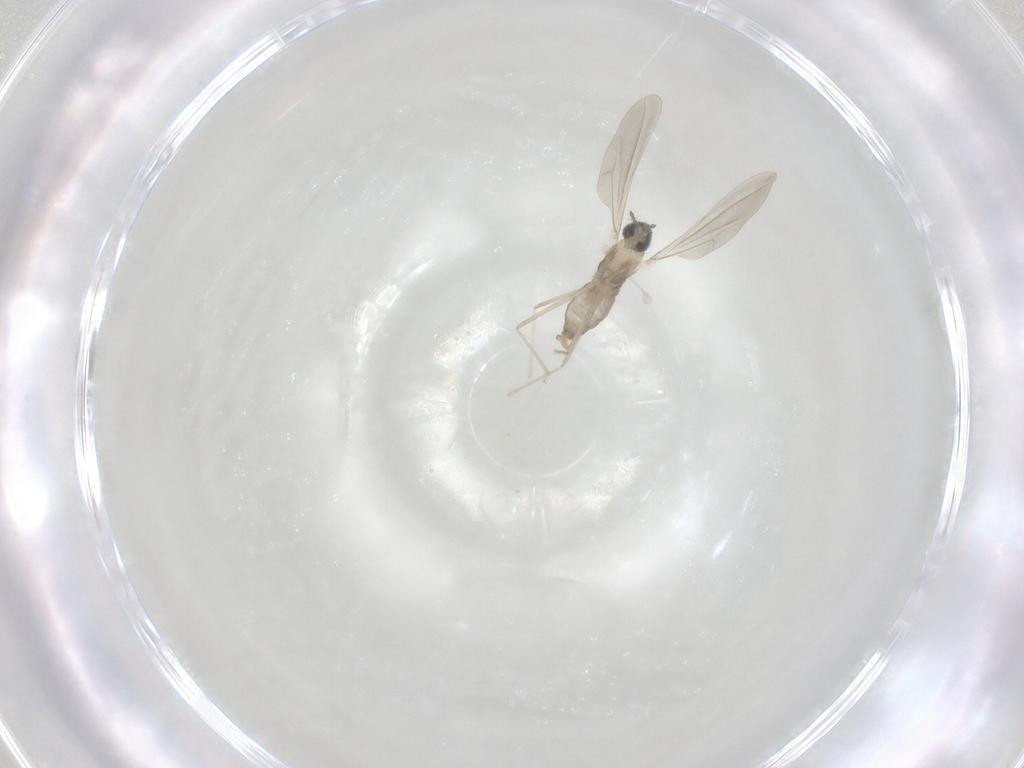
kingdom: Animalia
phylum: Arthropoda
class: Insecta
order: Diptera
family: Cecidomyiidae
